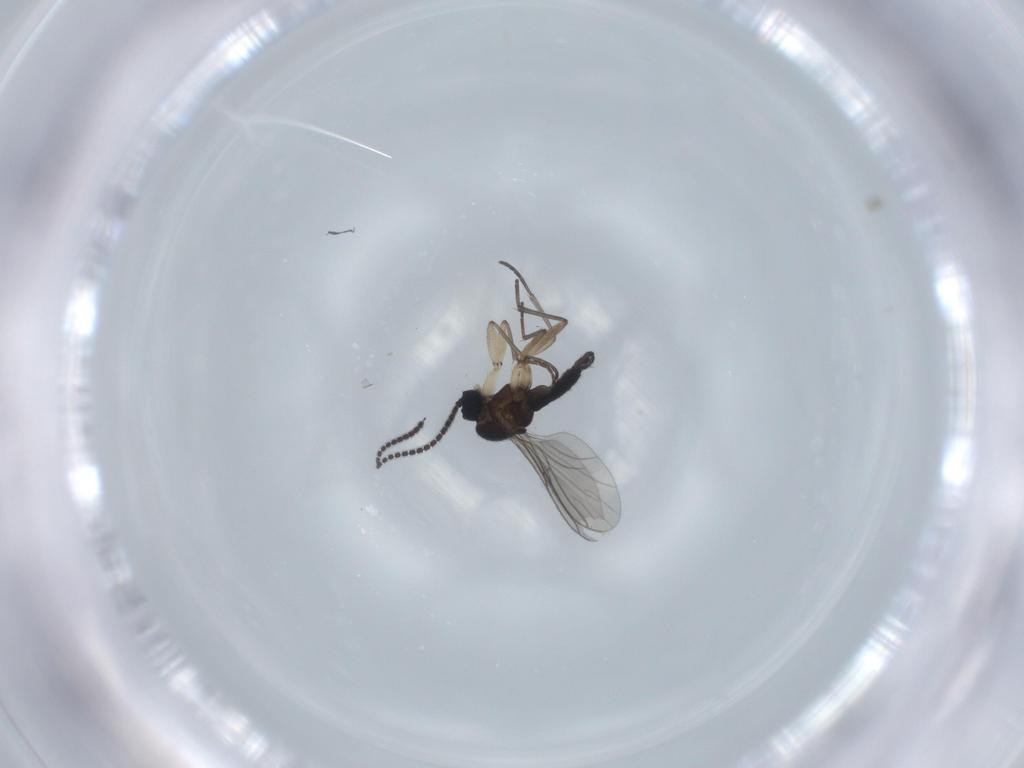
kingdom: Animalia
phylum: Arthropoda
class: Insecta
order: Diptera
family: Sciaridae
